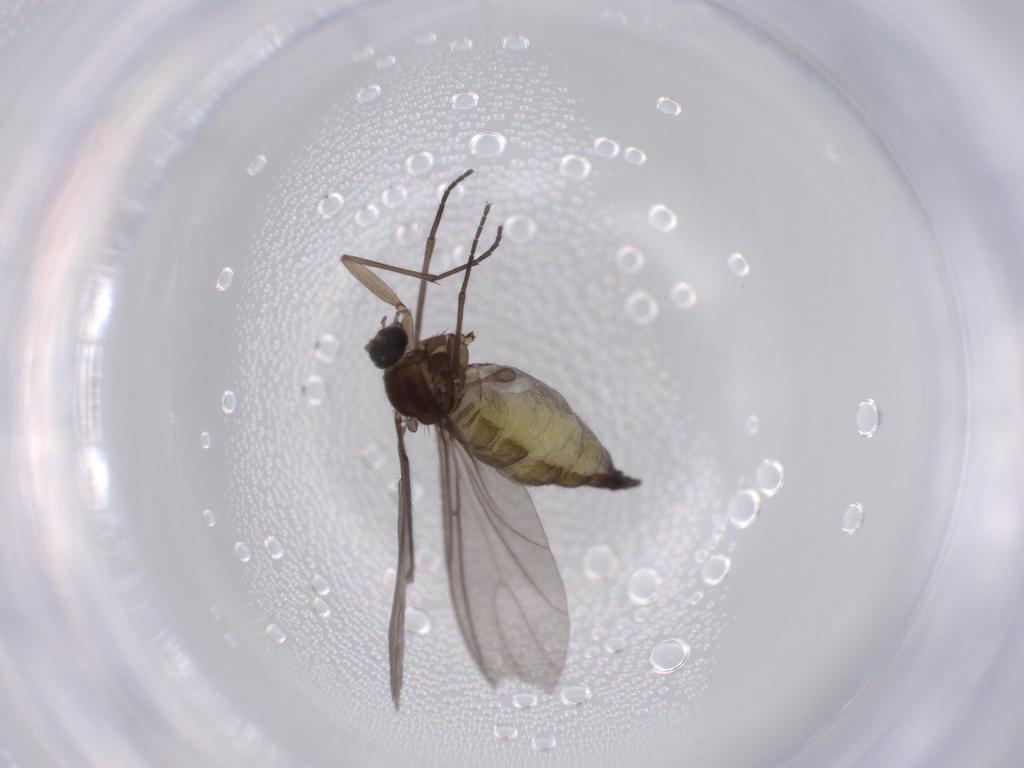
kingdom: Animalia
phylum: Arthropoda
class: Insecta
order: Diptera
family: Sciaridae
